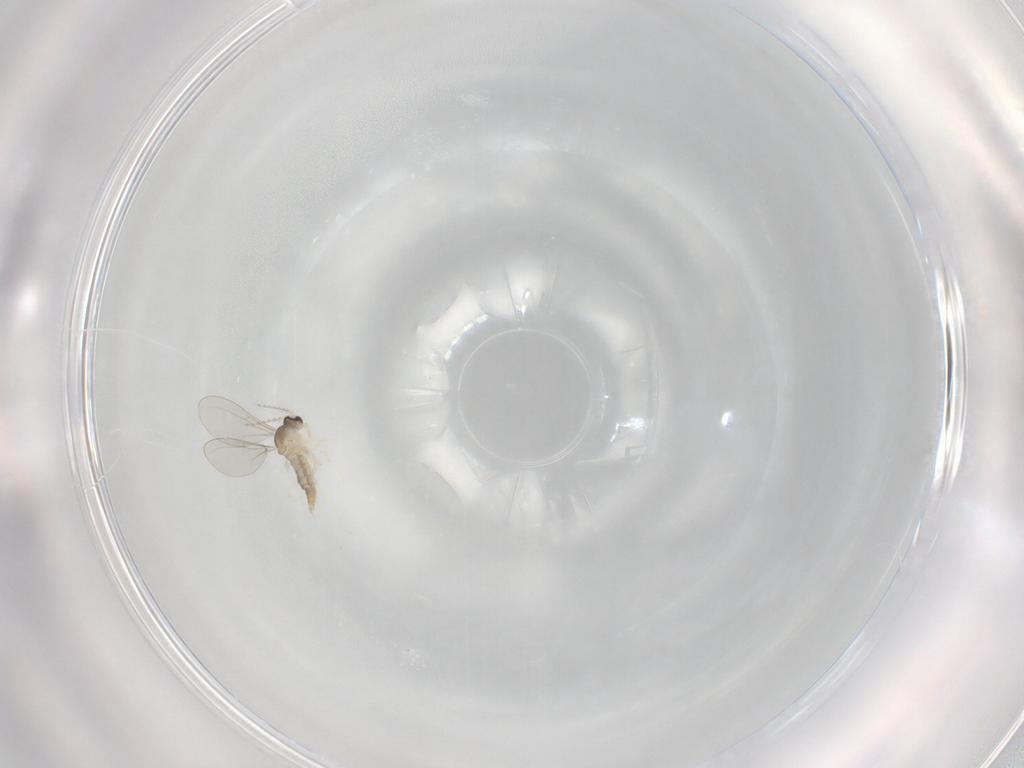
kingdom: Animalia
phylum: Arthropoda
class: Insecta
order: Diptera
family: Cecidomyiidae
